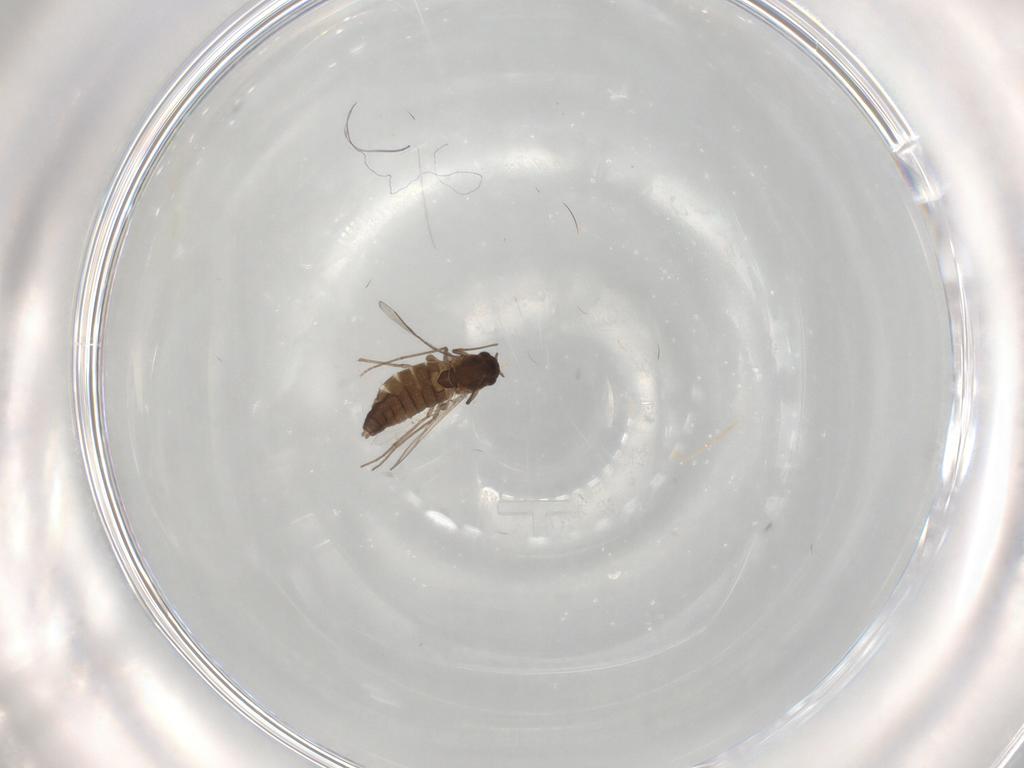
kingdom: Animalia
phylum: Arthropoda
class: Insecta
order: Diptera
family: Chironomidae
